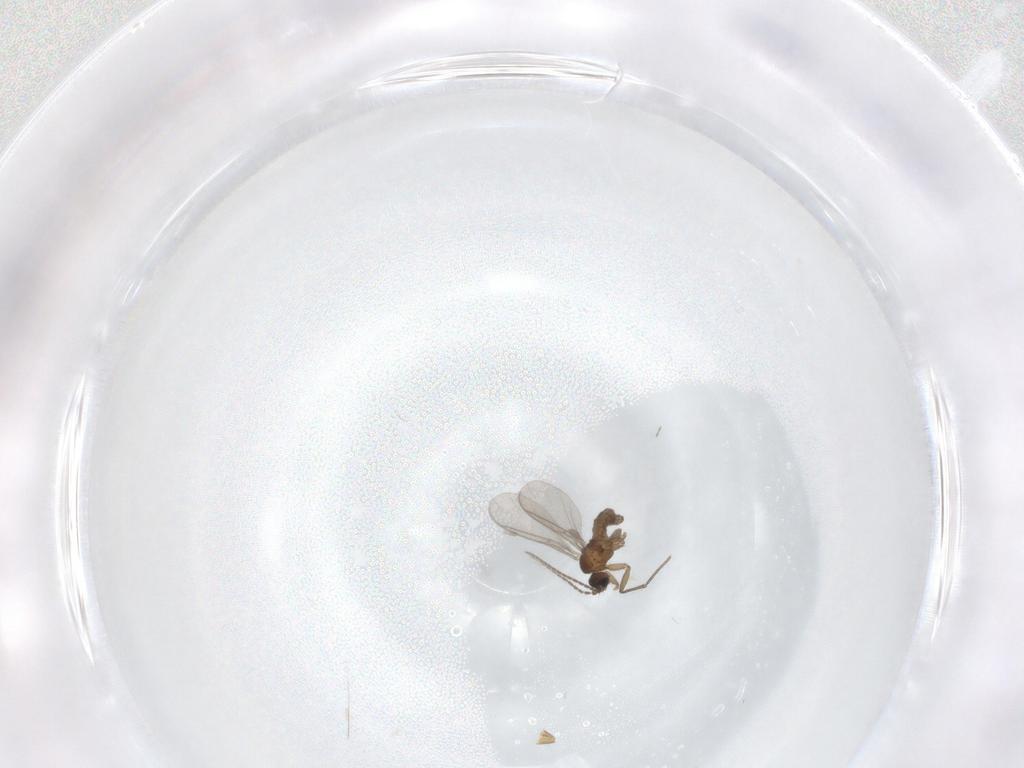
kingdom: Animalia
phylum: Arthropoda
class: Insecta
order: Diptera
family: Sciaridae
